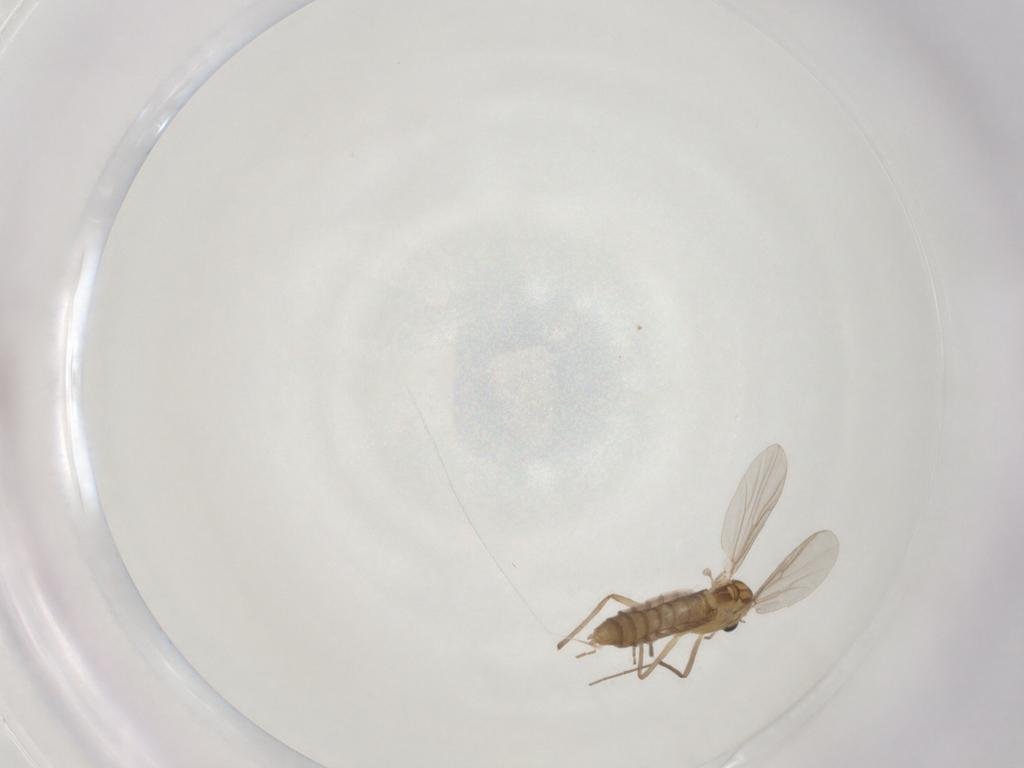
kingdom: Animalia
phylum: Arthropoda
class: Insecta
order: Diptera
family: Chironomidae
